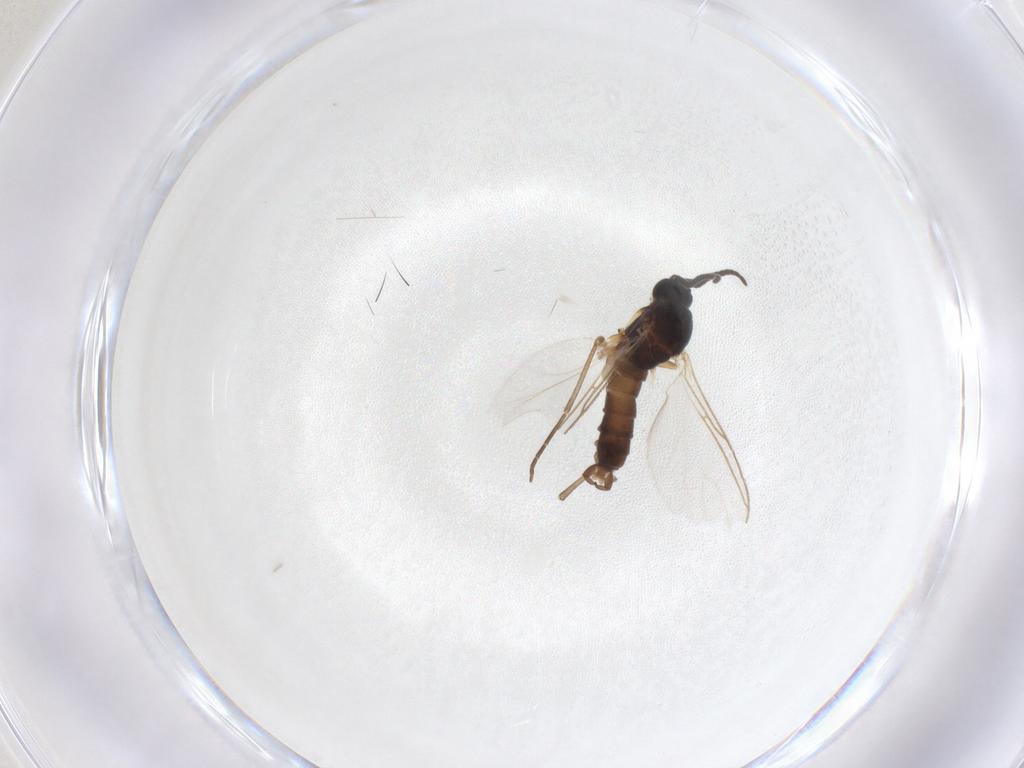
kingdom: Animalia
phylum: Arthropoda
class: Insecta
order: Diptera
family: Sciaridae
